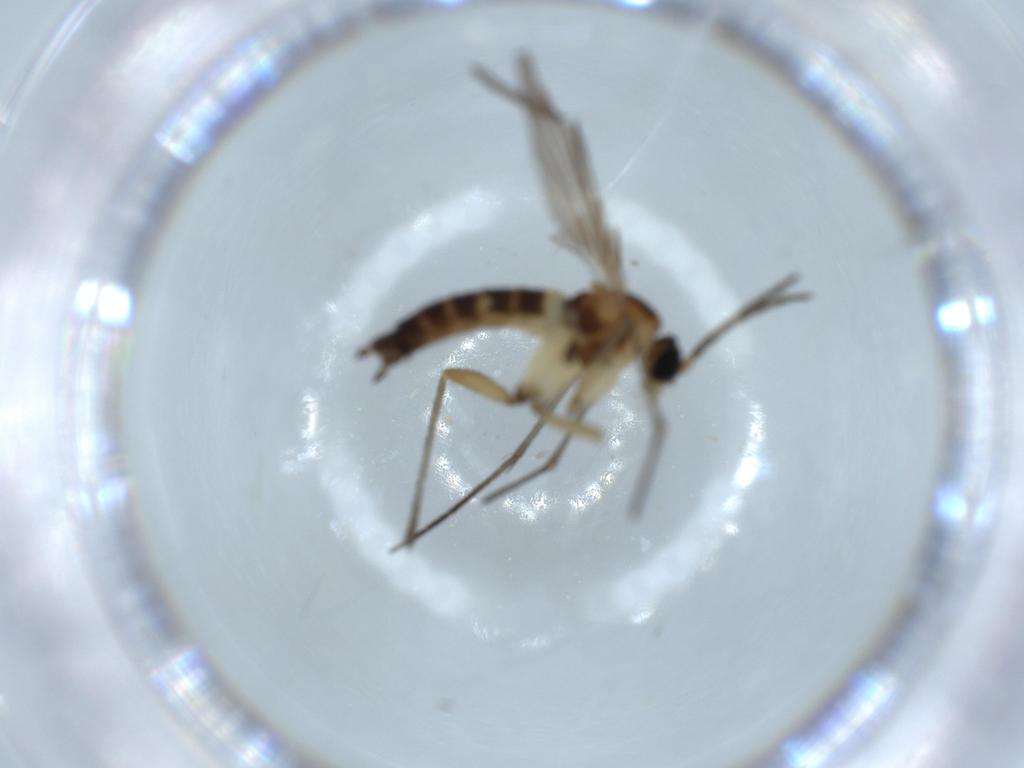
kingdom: Animalia
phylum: Arthropoda
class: Insecta
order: Diptera
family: Sciaridae
